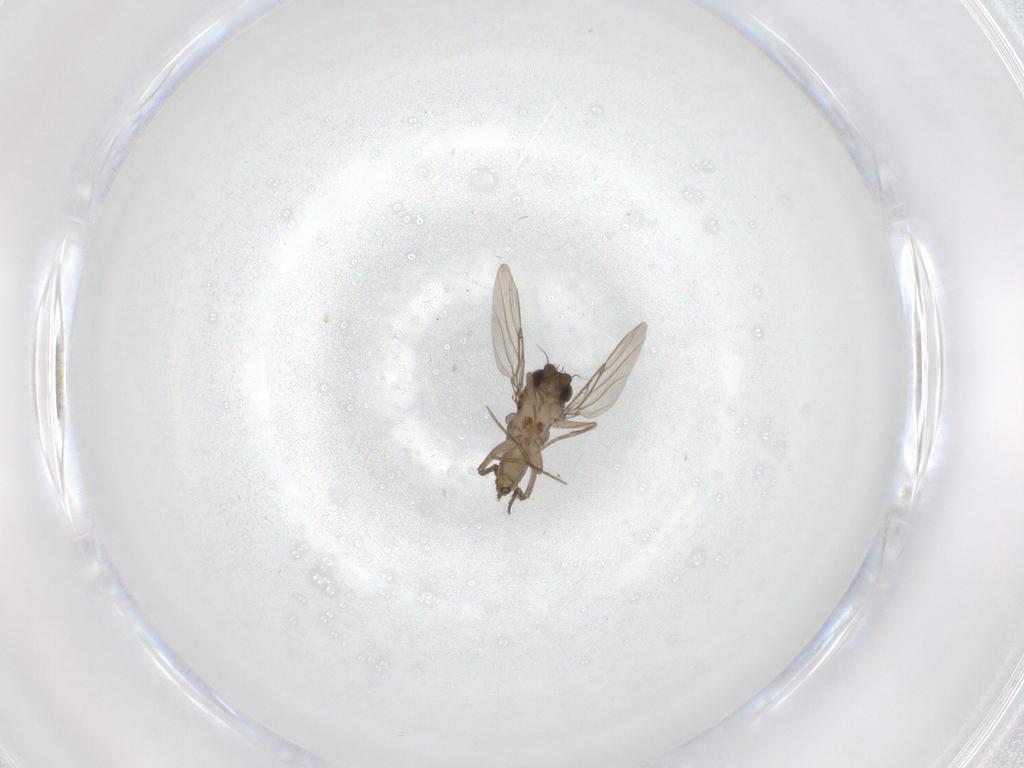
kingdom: Animalia
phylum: Arthropoda
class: Insecta
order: Diptera
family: Phoridae
